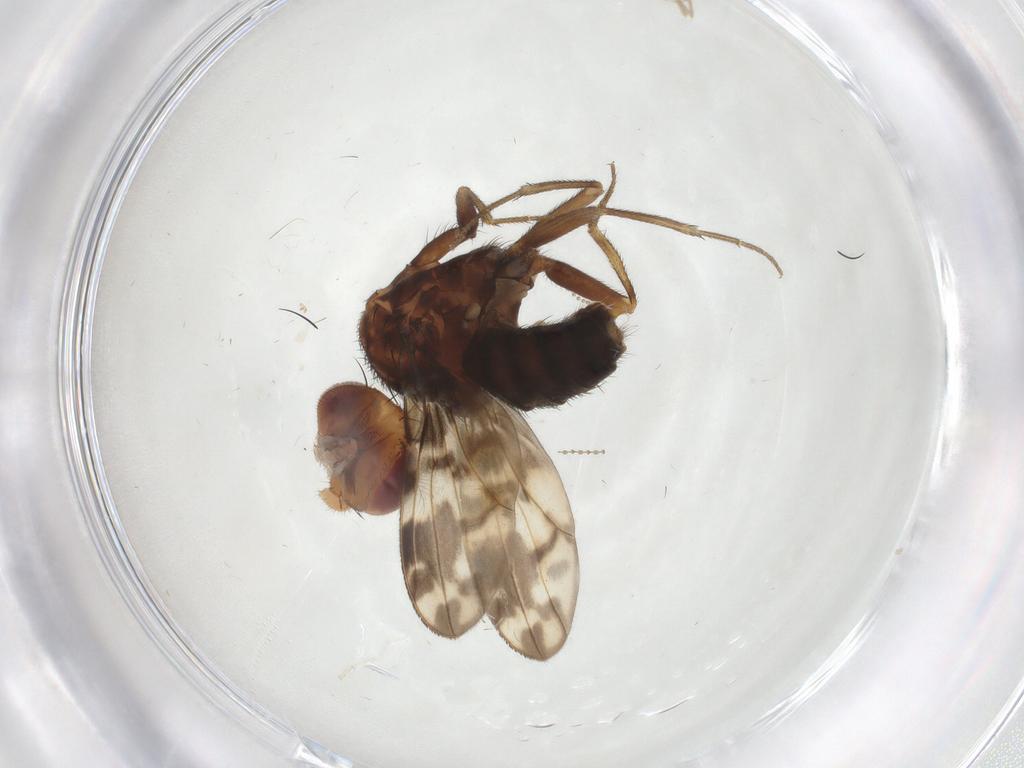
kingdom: Animalia
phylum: Arthropoda
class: Insecta
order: Diptera
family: Drosophilidae
